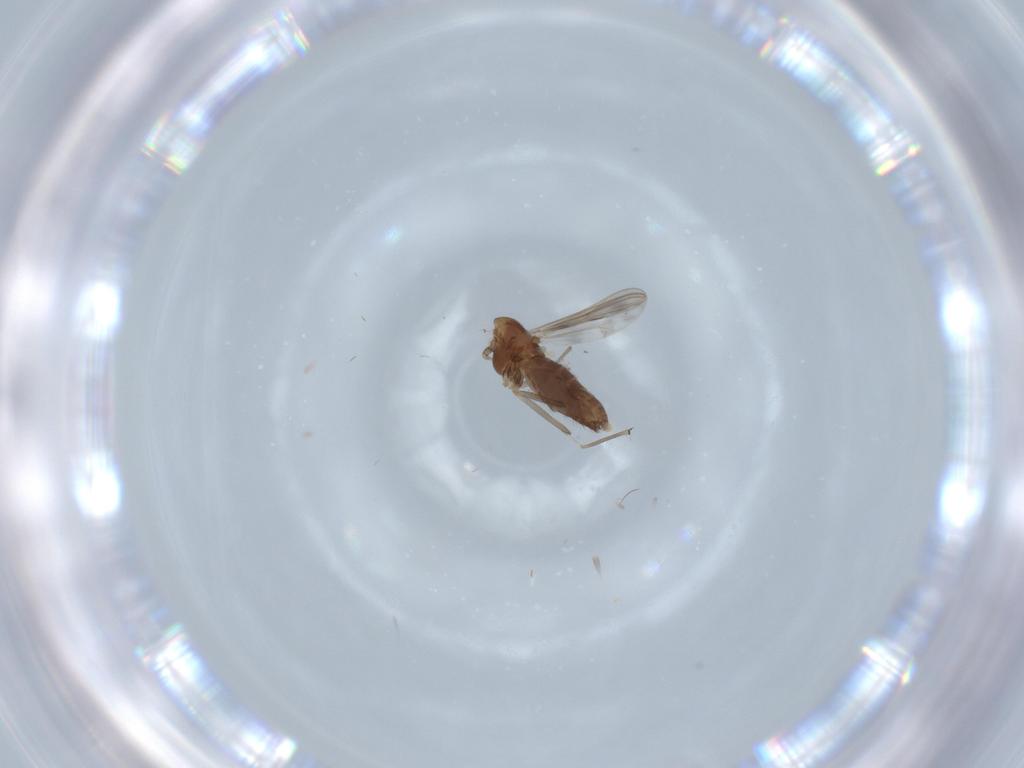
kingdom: Animalia
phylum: Arthropoda
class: Insecta
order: Diptera
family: Chironomidae
